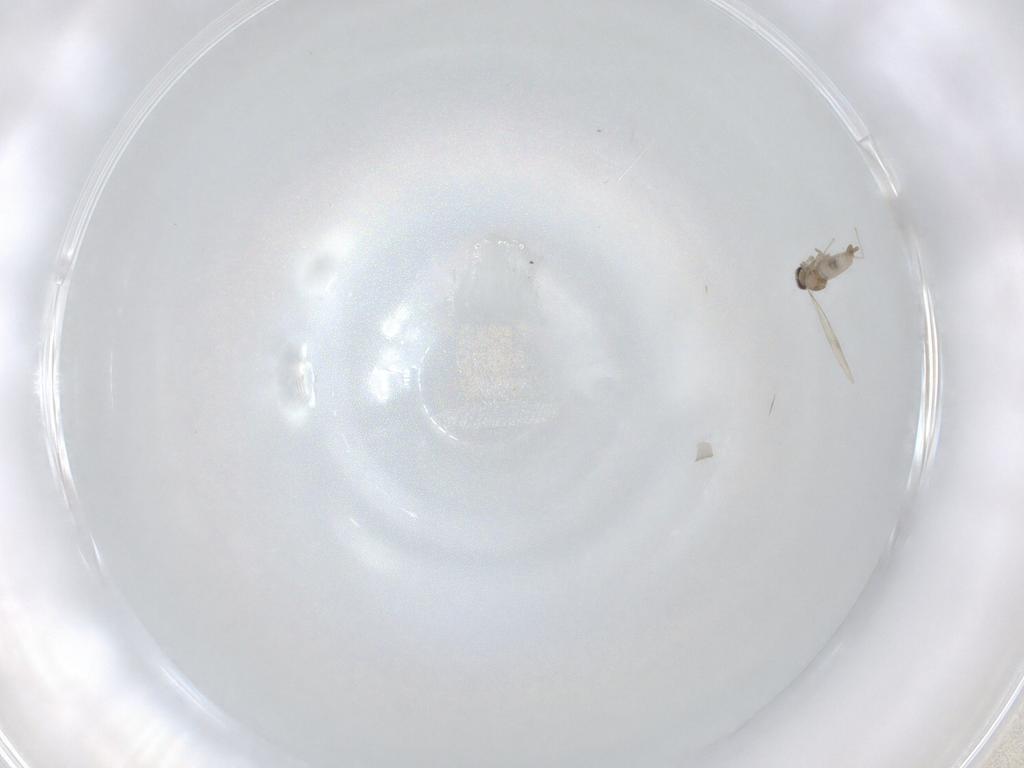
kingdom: Animalia
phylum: Arthropoda
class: Insecta
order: Diptera
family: Cecidomyiidae
